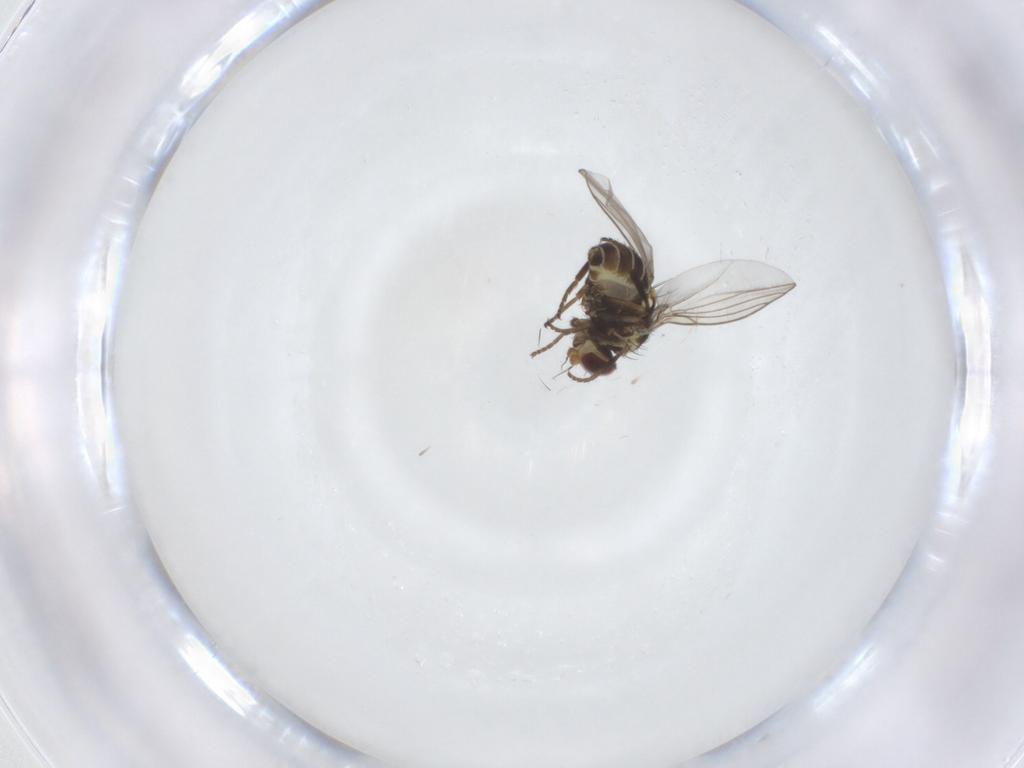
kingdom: Animalia
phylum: Arthropoda
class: Insecta
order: Diptera
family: Agromyzidae
